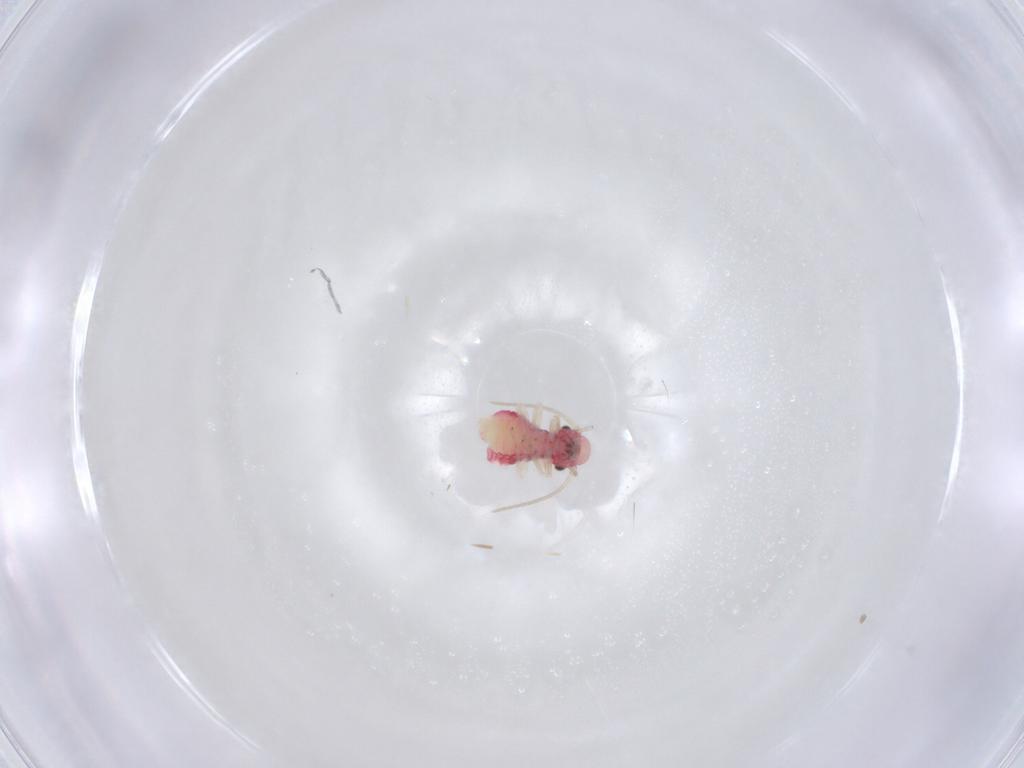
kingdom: Animalia
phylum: Arthropoda
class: Insecta
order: Psocodea
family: Caeciliusidae
